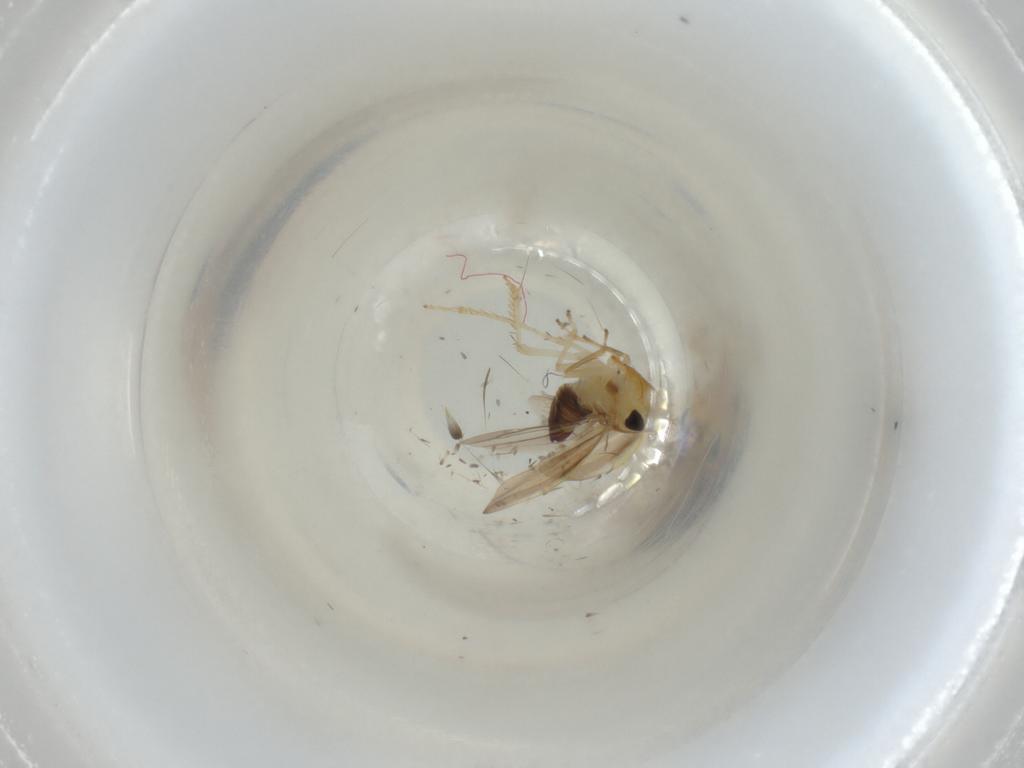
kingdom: Animalia
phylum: Arthropoda
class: Insecta
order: Hemiptera
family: Cicadellidae
